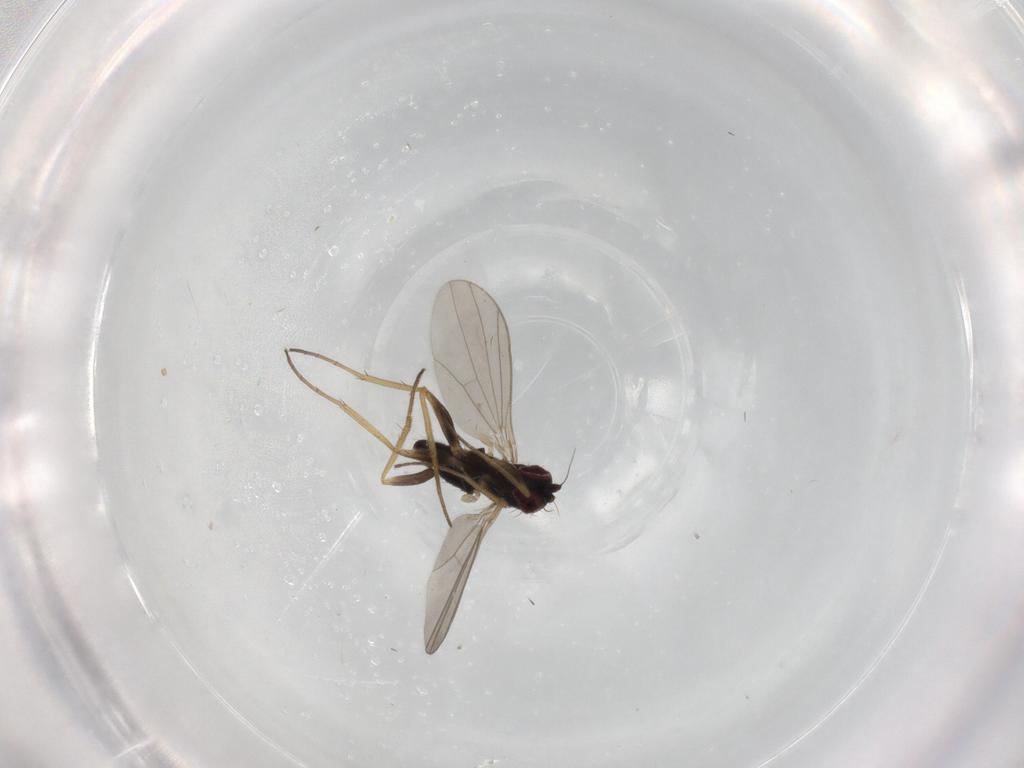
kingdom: Animalia
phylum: Arthropoda
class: Insecta
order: Diptera
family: Dolichopodidae
